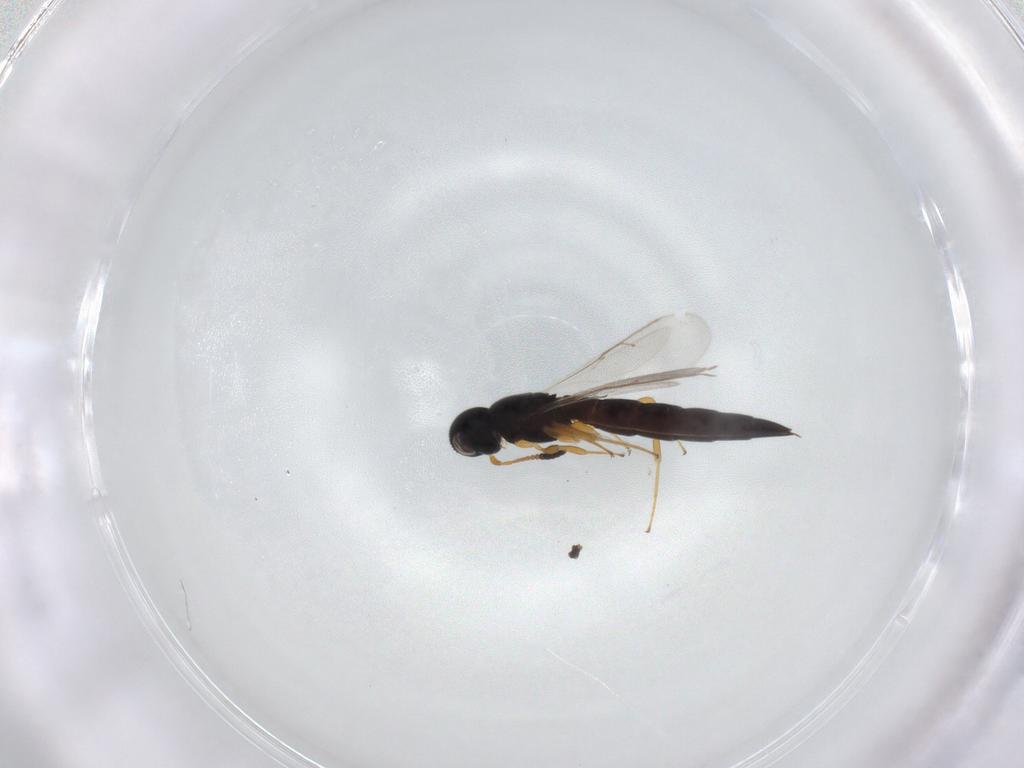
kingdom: Animalia
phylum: Arthropoda
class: Insecta
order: Hymenoptera
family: Scelionidae
